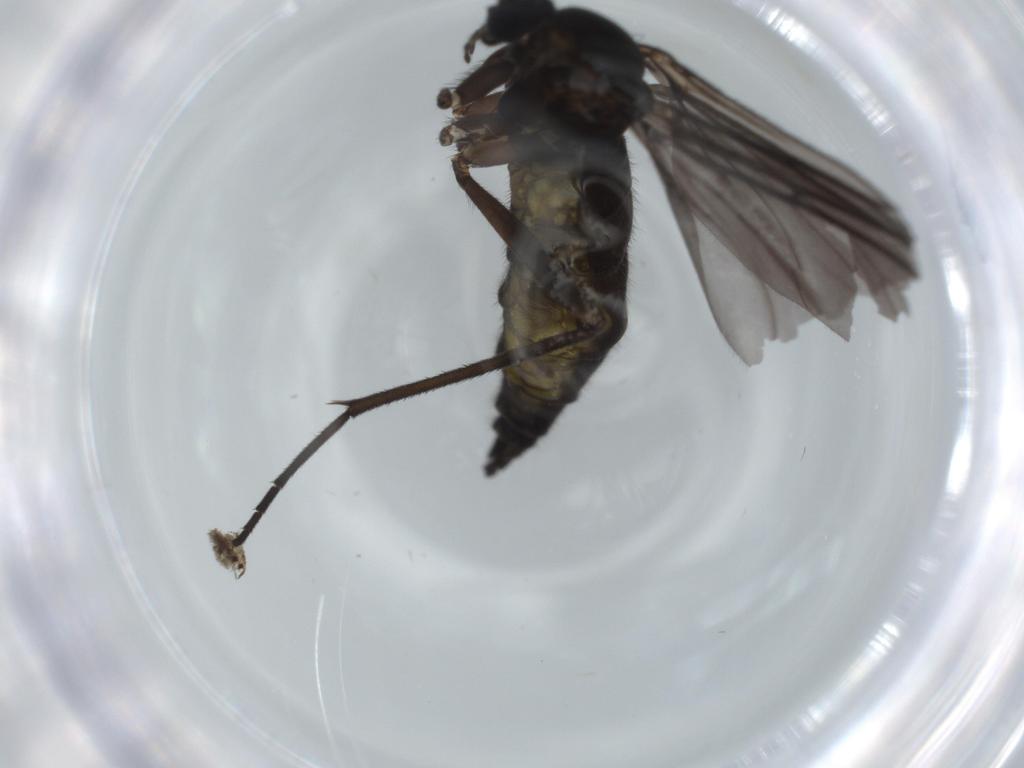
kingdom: Animalia
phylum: Arthropoda
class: Insecta
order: Diptera
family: Sciaridae
